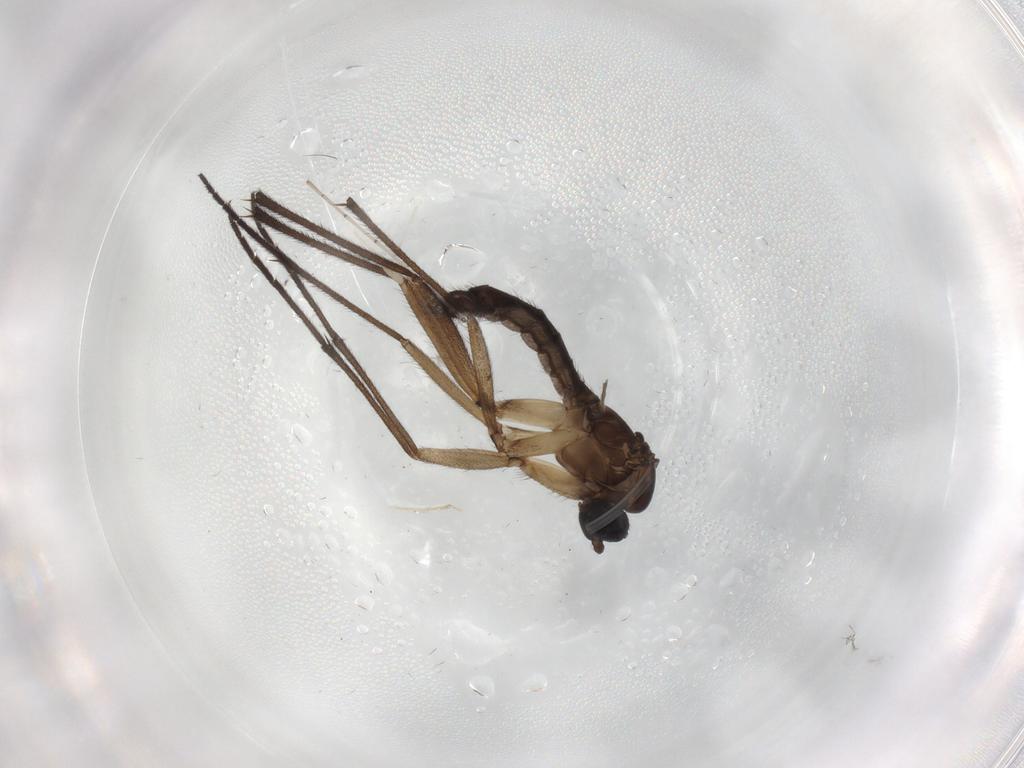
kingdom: Animalia
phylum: Arthropoda
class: Insecta
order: Diptera
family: Sciaridae
